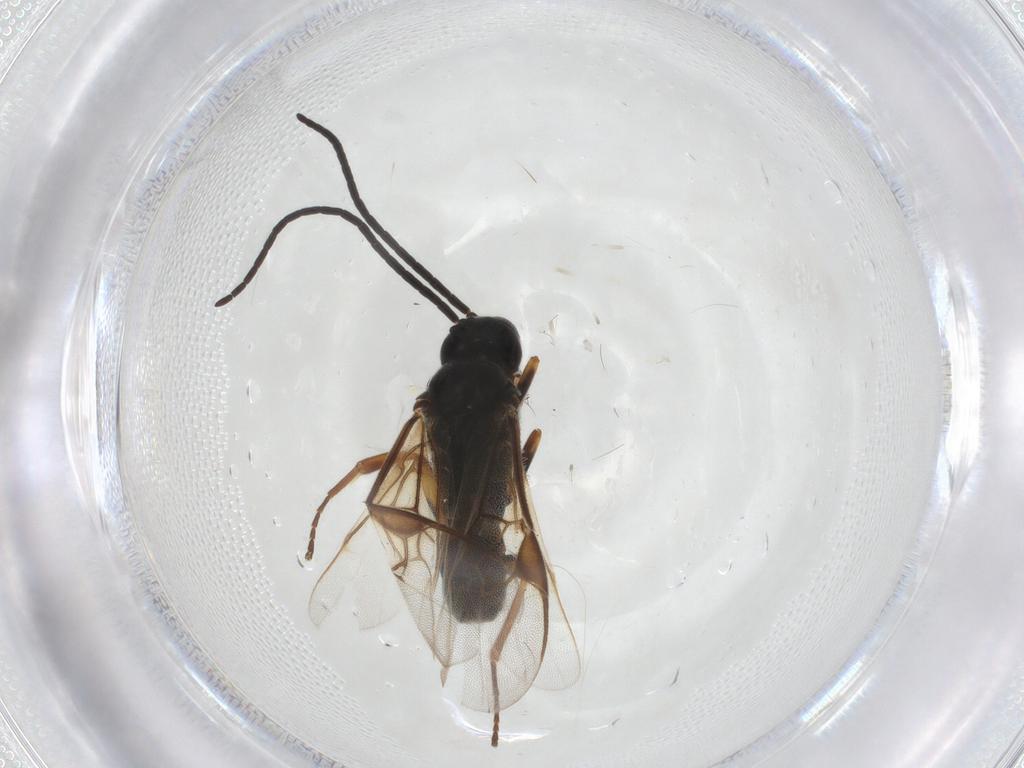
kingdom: Animalia
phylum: Arthropoda
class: Insecta
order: Hymenoptera
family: Braconidae
